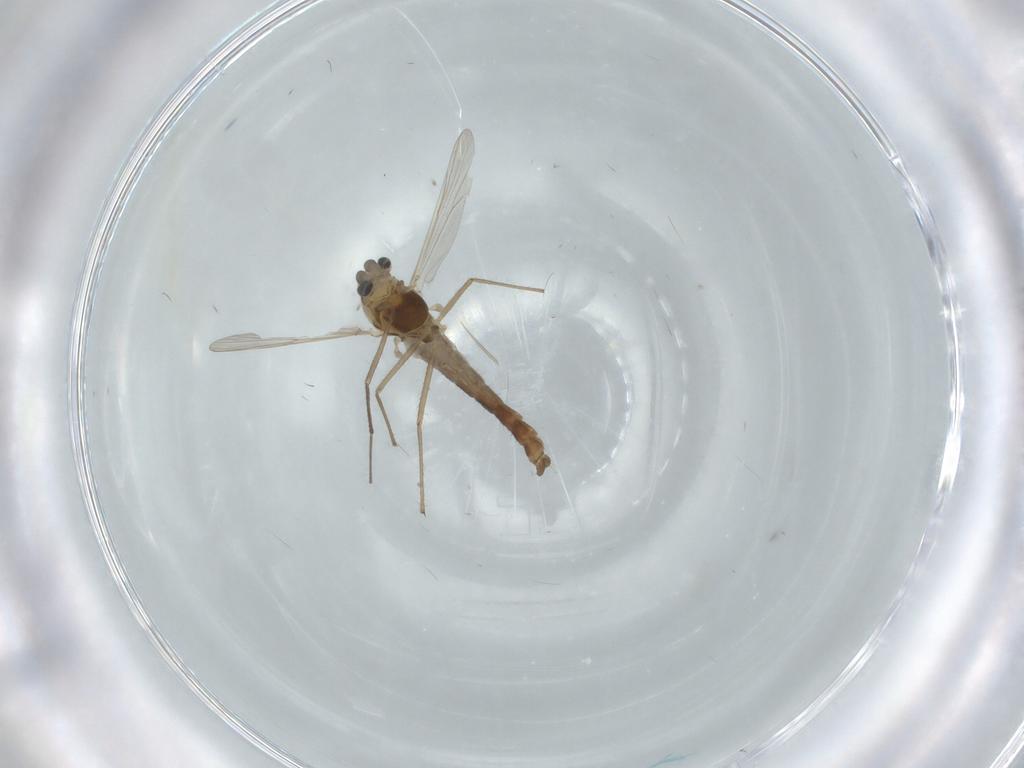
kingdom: Animalia
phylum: Arthropoda
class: Insecta
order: Diptera
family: Chironomidae
